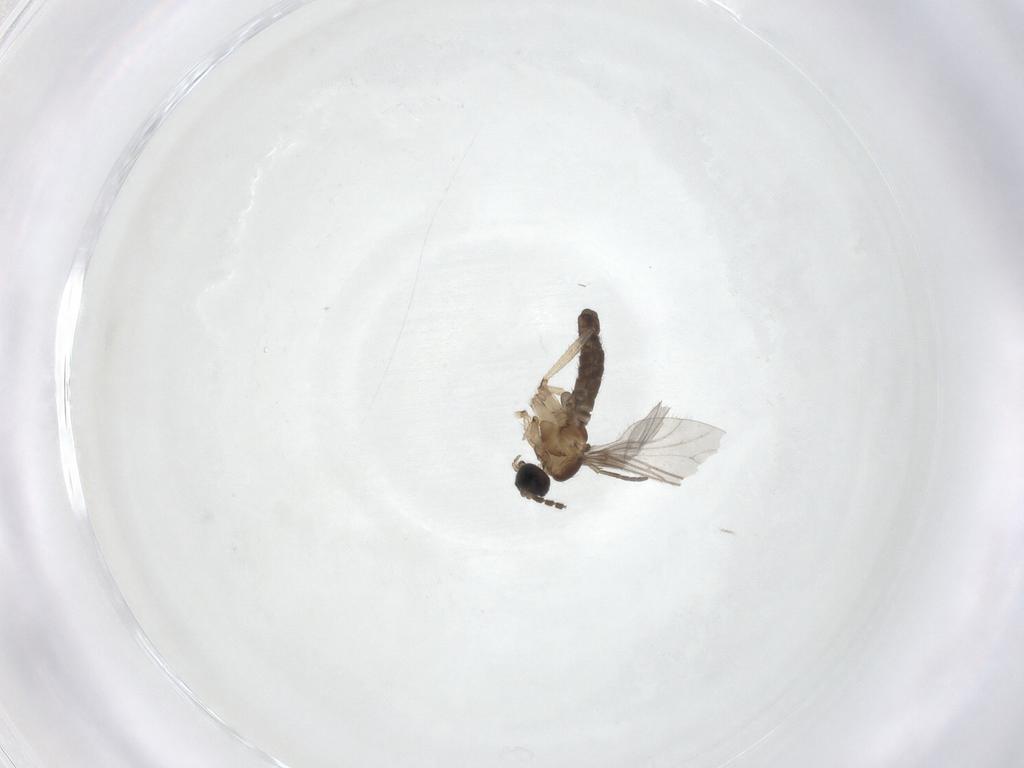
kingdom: Animalia
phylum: Arthropoda
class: Insecta
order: Diptera
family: Sciaridae
